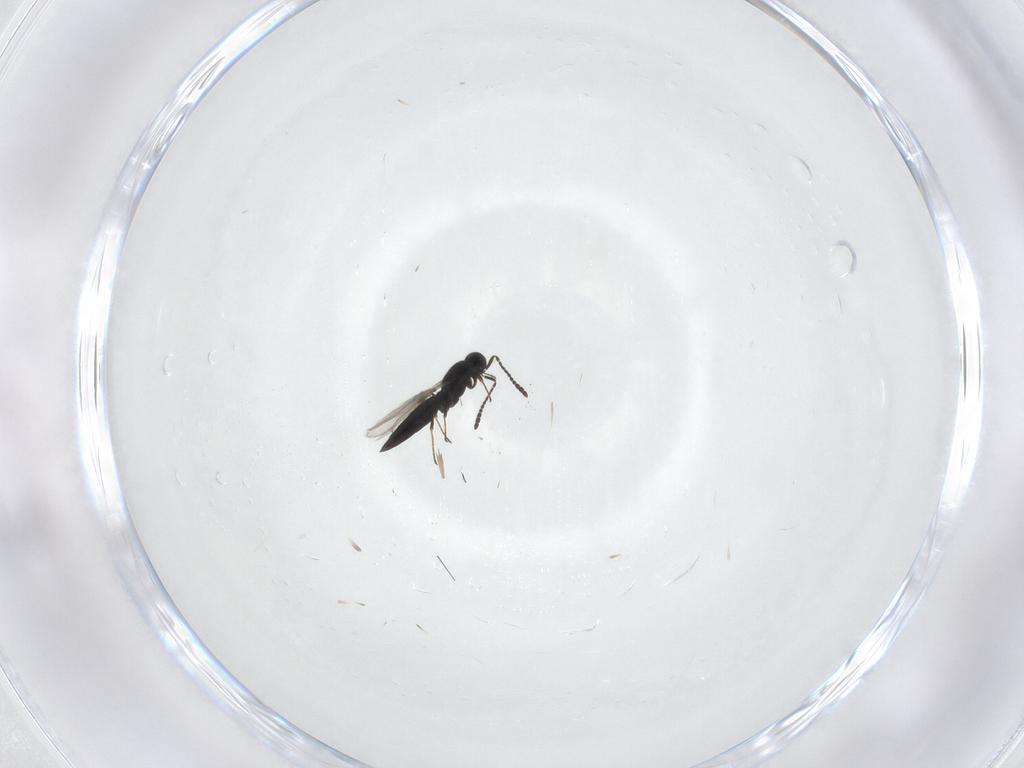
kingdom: Animalia
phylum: Arthropoda
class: Insecta
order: Hymenoptera
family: Scelionidae
